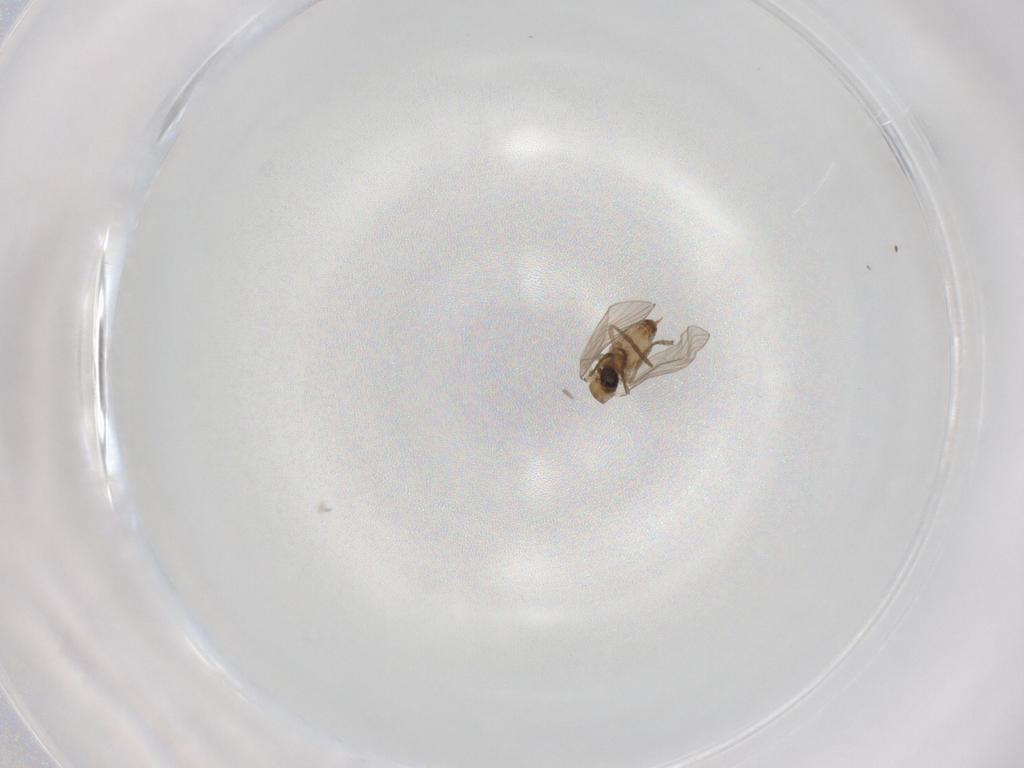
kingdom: Animalia
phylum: Arthropoda
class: Insecta
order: Diptera
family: Psychodidae
